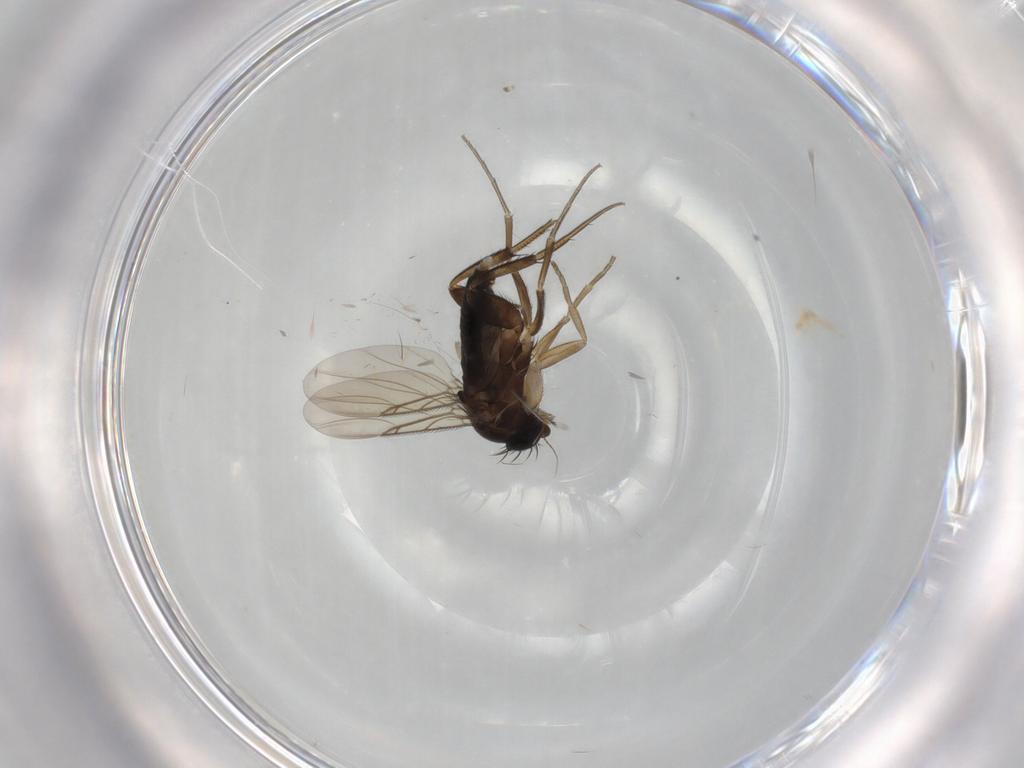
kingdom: Animalia
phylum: Arthropoda
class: Insecta
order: Diptera
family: Phoridae
